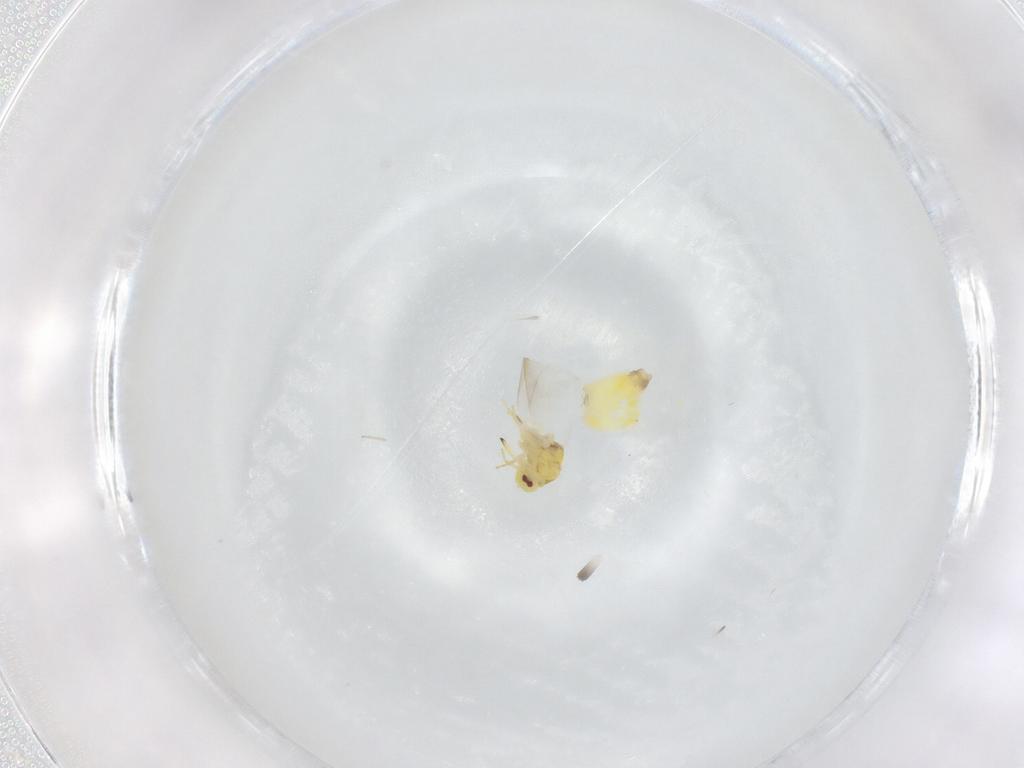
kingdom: Animalia
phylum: Arthropoda
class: Insecta
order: Hemiptera
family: Aleyrodidae
